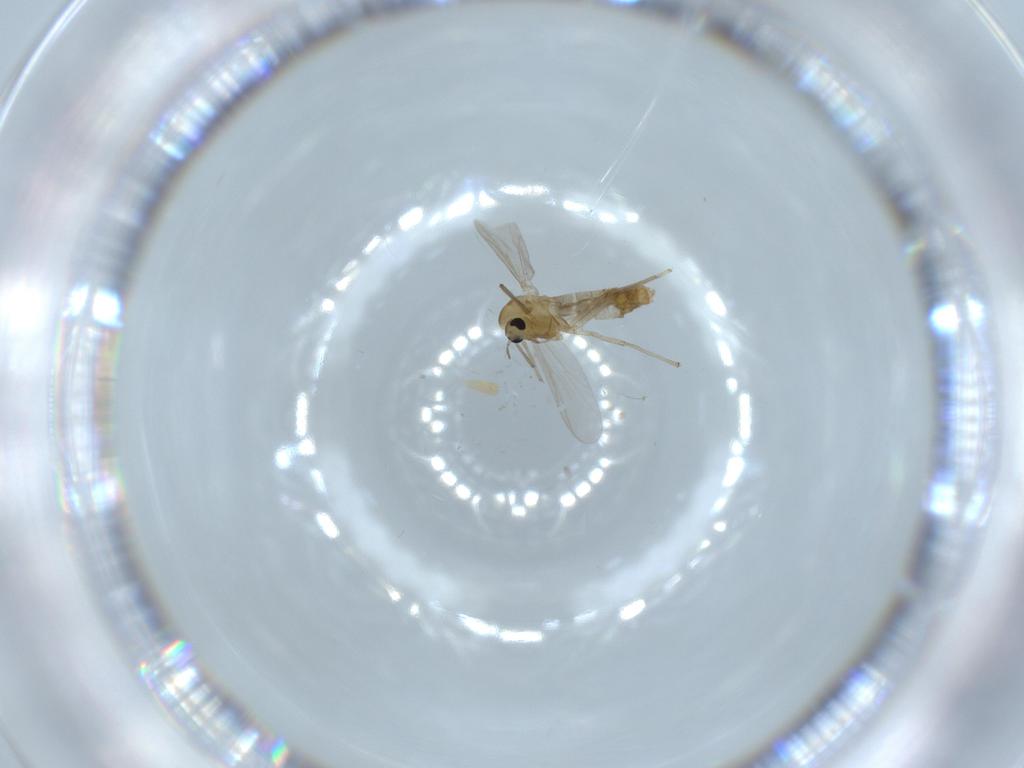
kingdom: Animalia
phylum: Arthropoda
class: Insecta
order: Diptera
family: Chironomidae
